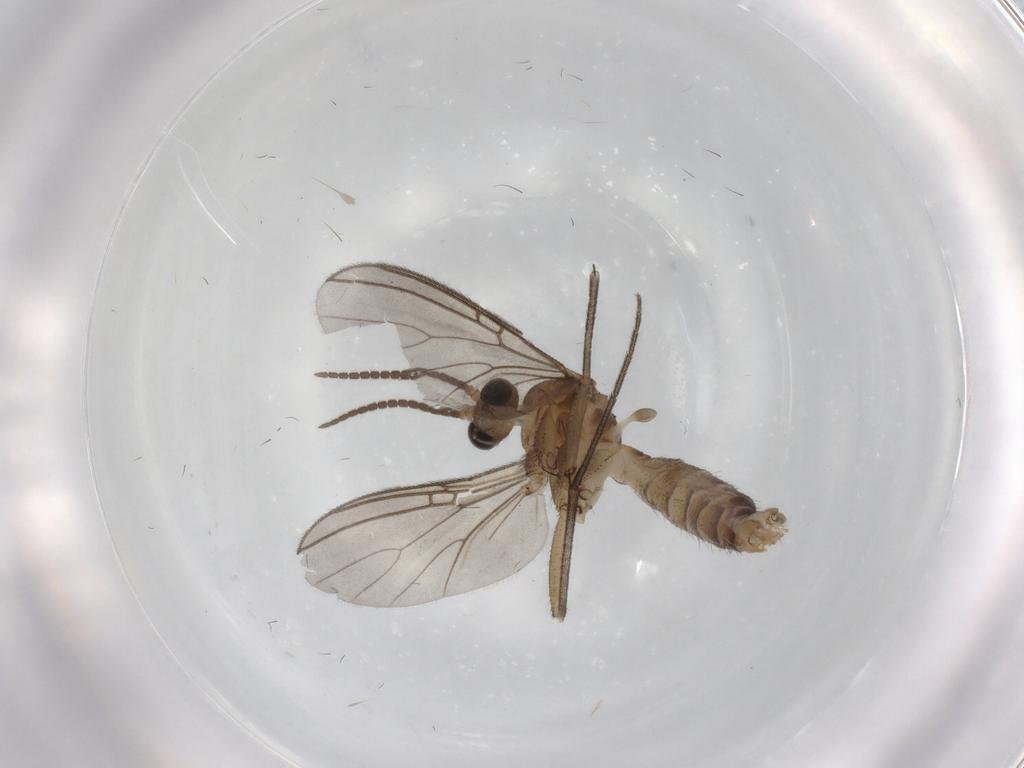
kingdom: Animalia
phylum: Arthropoda
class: Insecta
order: Diptera
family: Mycetophilidae
